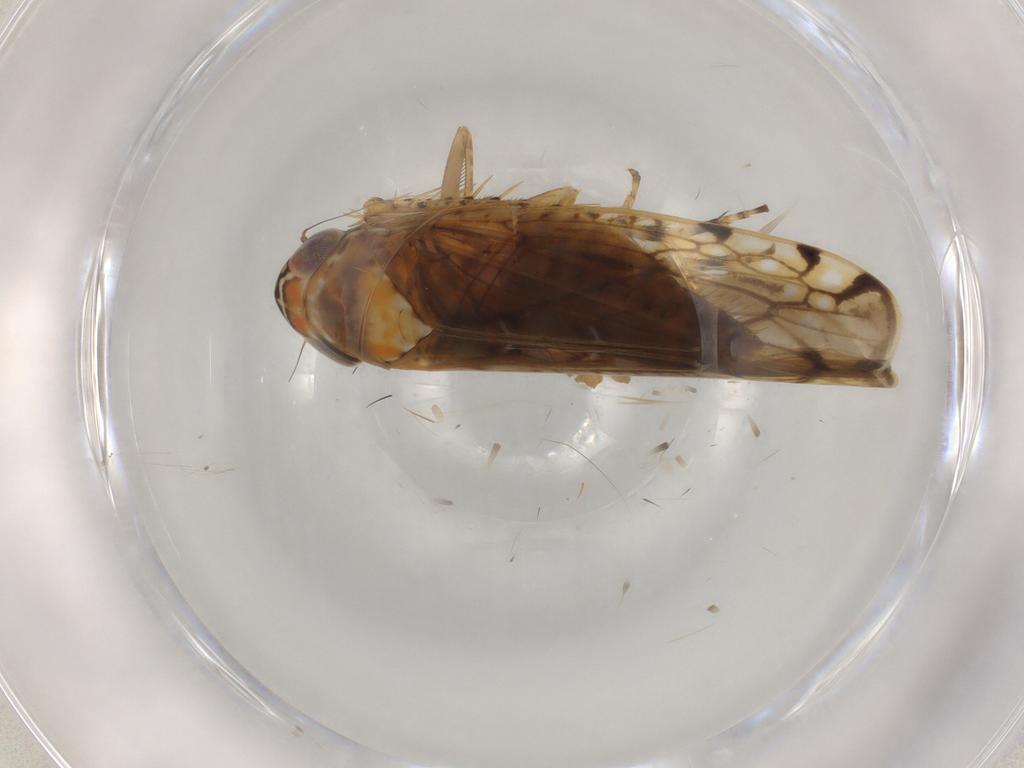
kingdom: Animalia
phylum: Arthropoda
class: Insecta
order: Hemiptera
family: Cicadellidae
